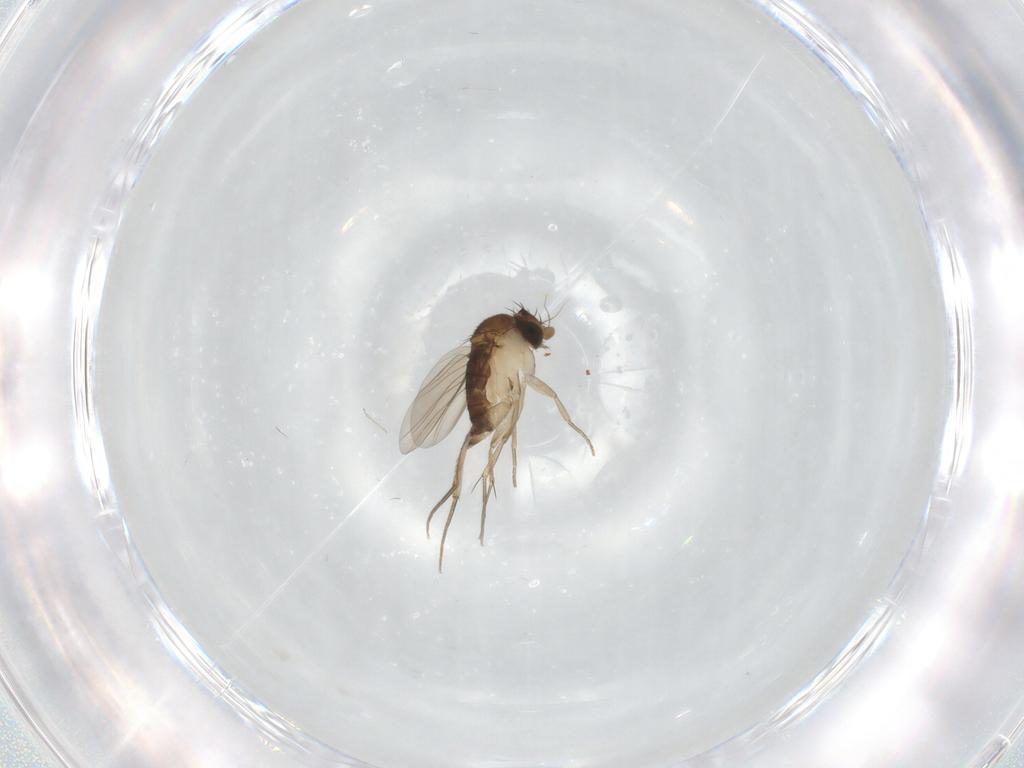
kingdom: Animalia
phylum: Arthropoda
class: Insecta
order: Diptera
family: Phoridae
